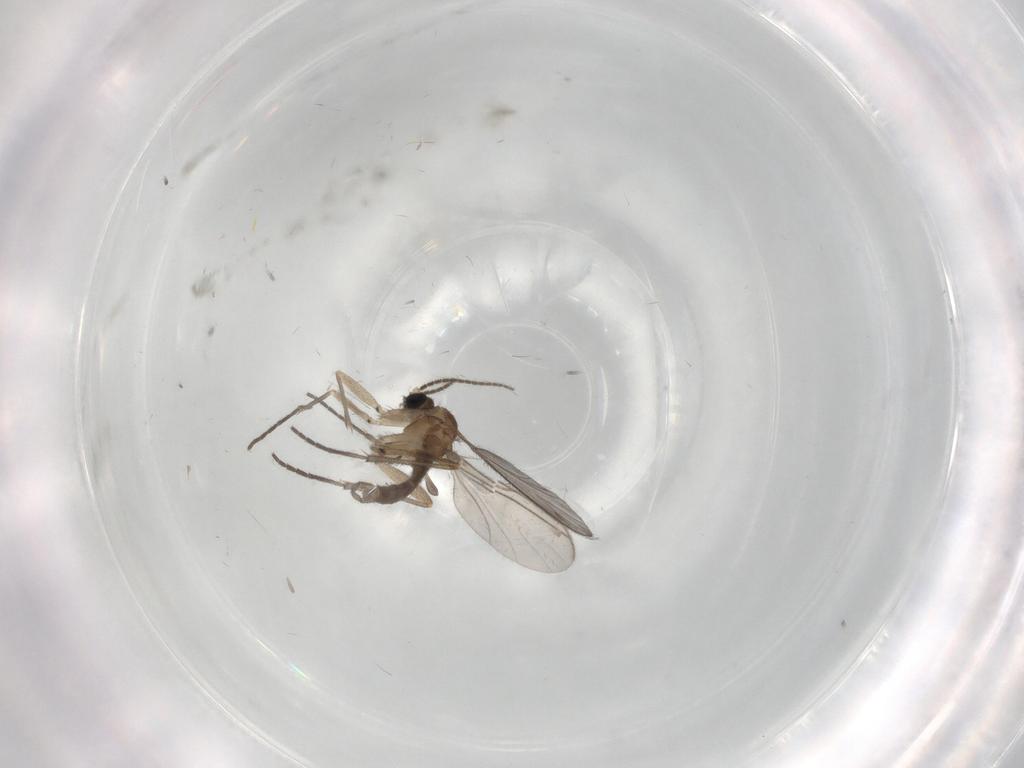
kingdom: Animalia
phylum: Arthropoda
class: Insecta
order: Diptera
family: Sciaridae
